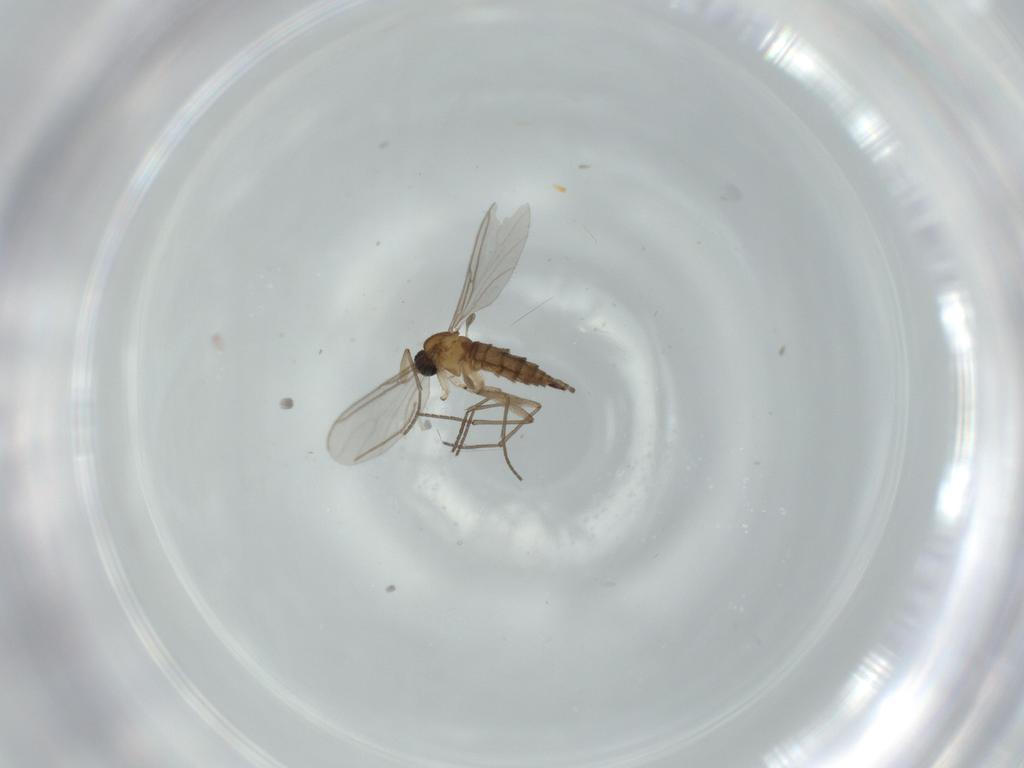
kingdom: Animalia
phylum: Arthropoda
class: Insecta
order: Diptera
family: Sciaridae
